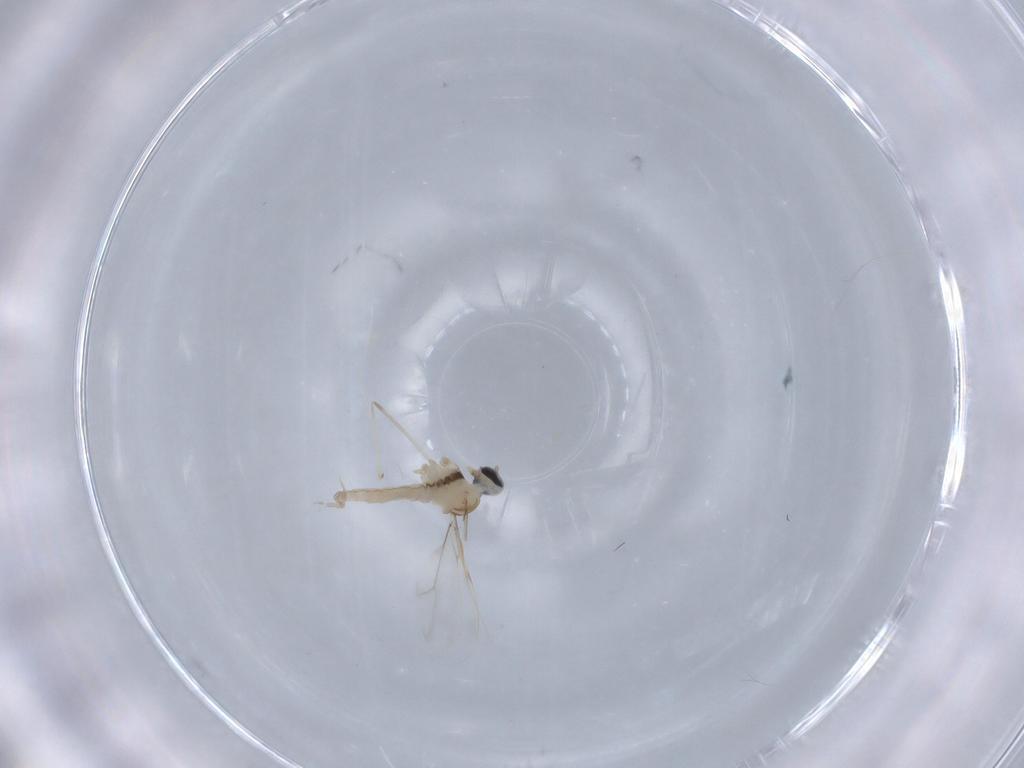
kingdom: Animalia
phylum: Arthropoda
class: Insecta
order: Diptera
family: Cecidomyiidae
